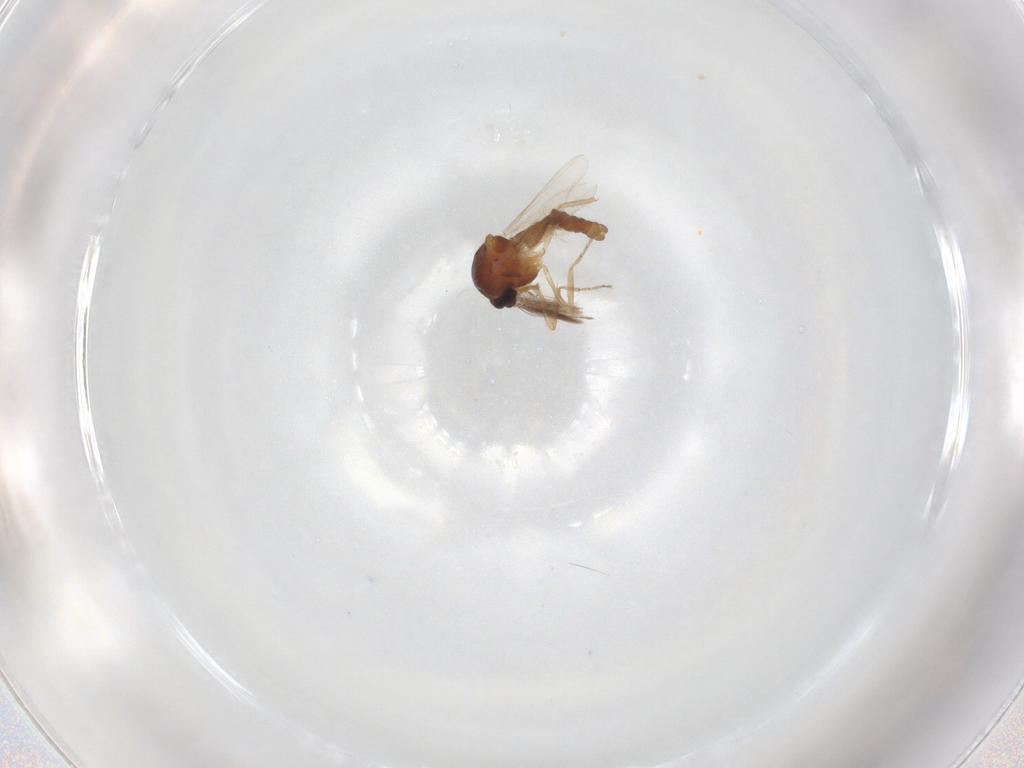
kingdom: Animalia
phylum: Arthropoda
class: Insecta
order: Diptera
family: Ceratopogonidae
